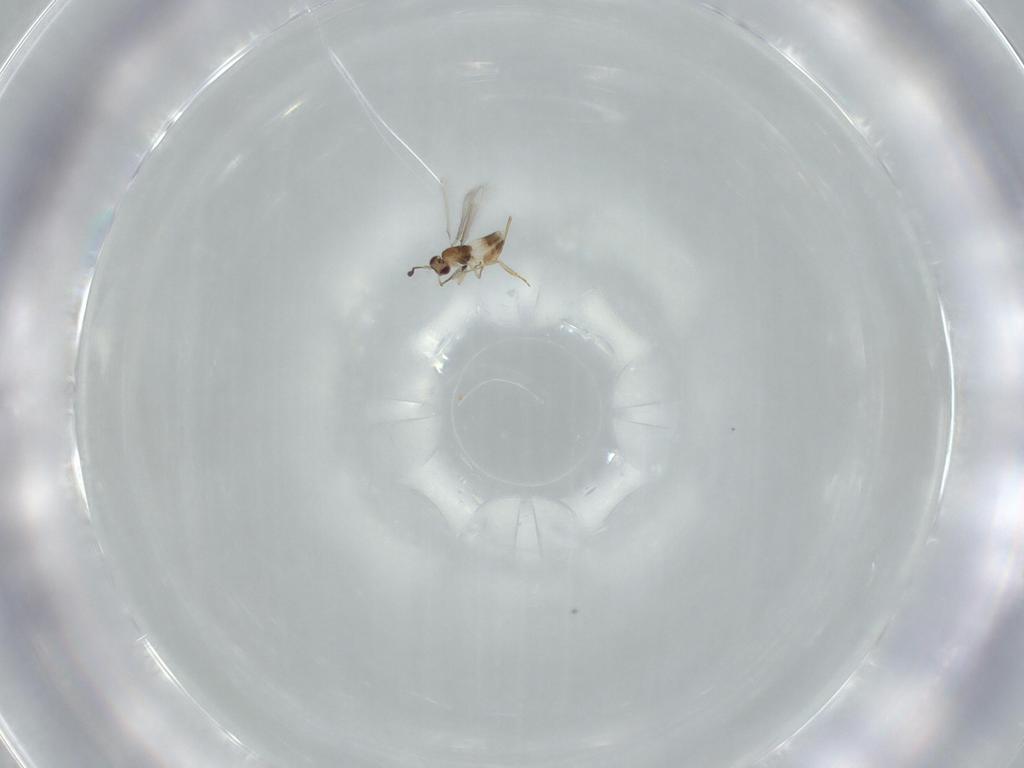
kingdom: Animalia
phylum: Arthropoda
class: Insecta
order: Hymenoptera
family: Mymaridae
